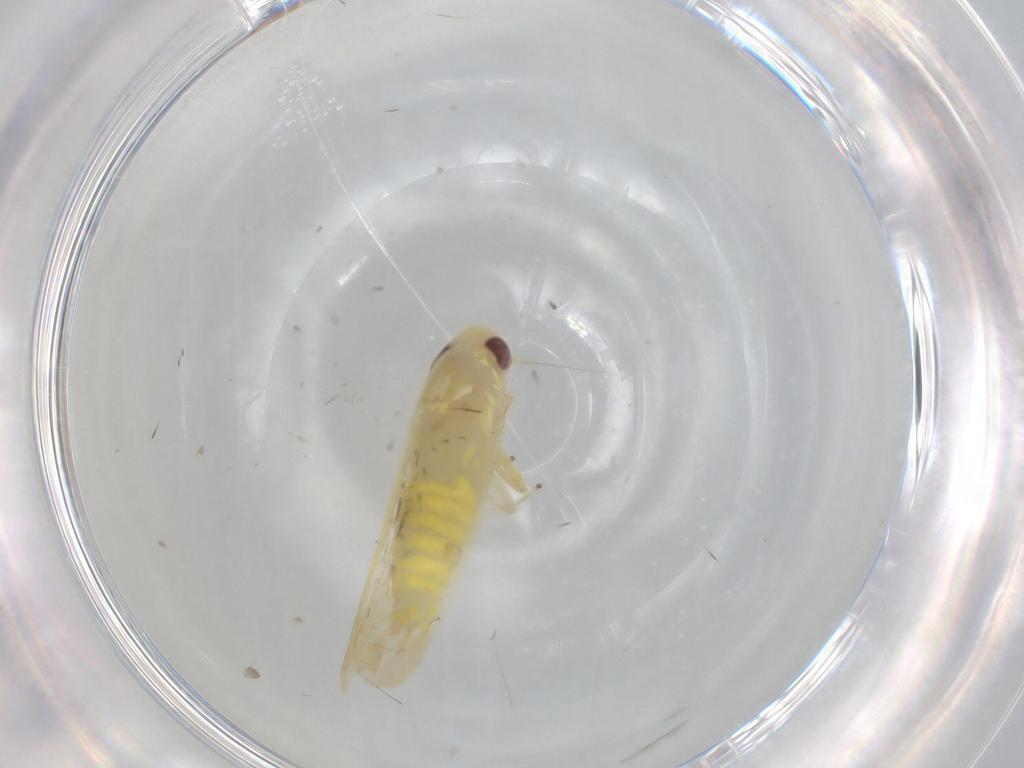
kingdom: Animalia
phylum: Arthropoda
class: Insecta
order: Hemiptera
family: Cicadellidae
